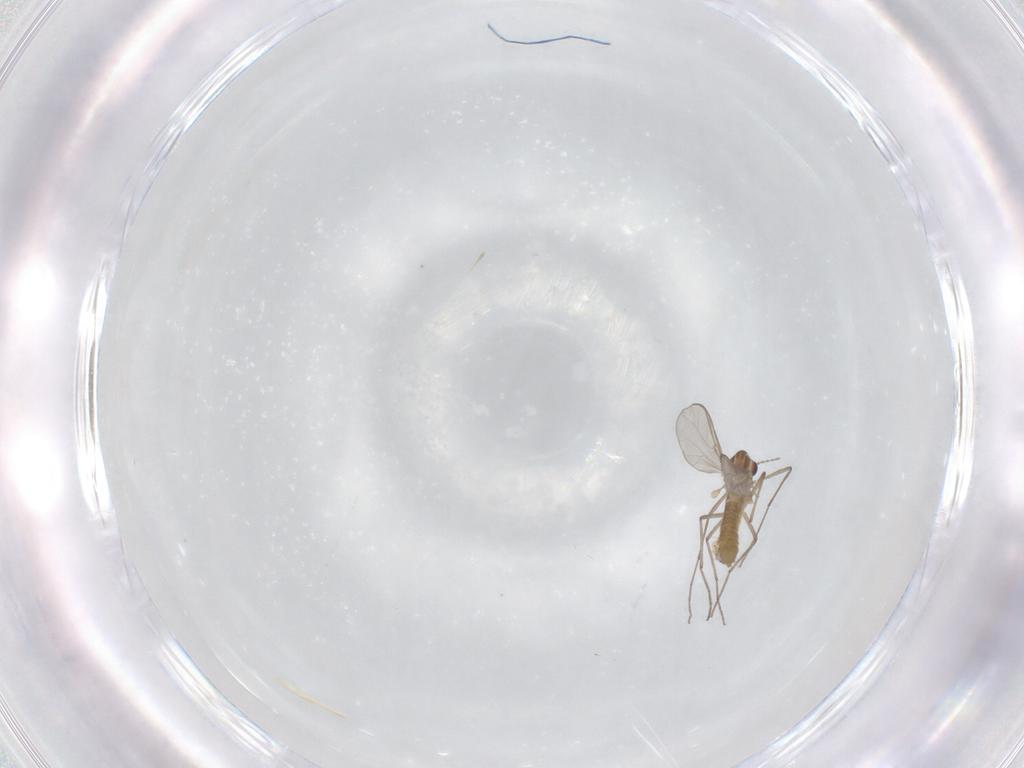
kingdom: Animalia
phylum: Arthropoda
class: Insecta
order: Diptera
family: Chironomidae
